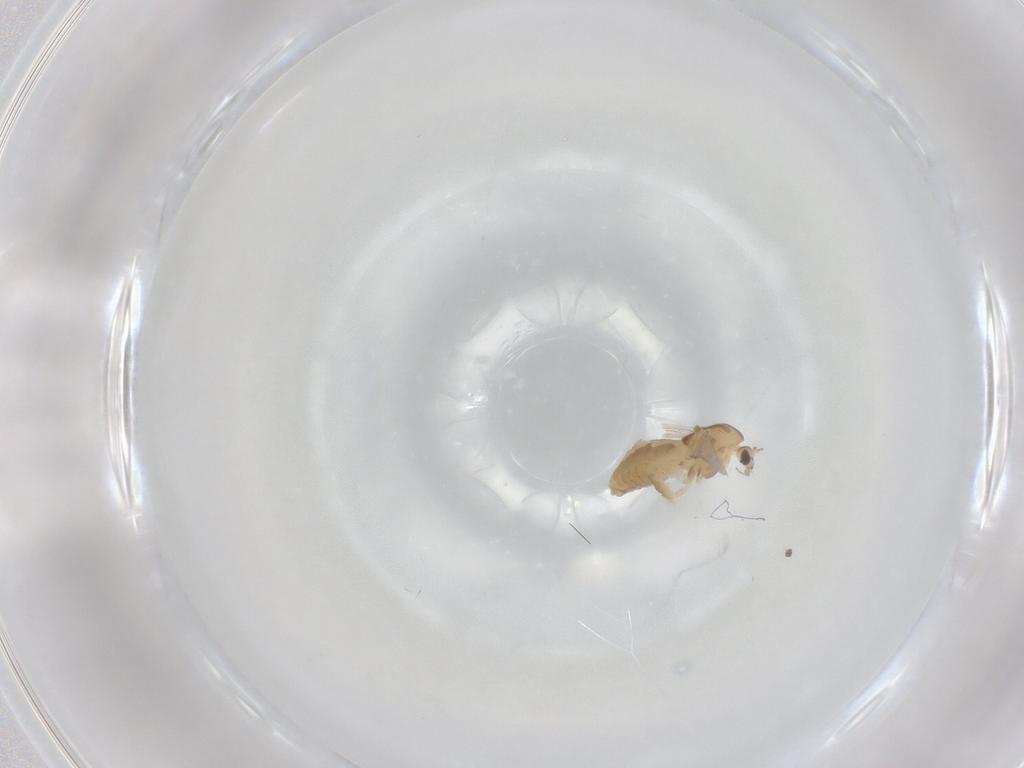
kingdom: Animalia
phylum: Arthropoda
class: Insecta
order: Diptera
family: Chironomidae
